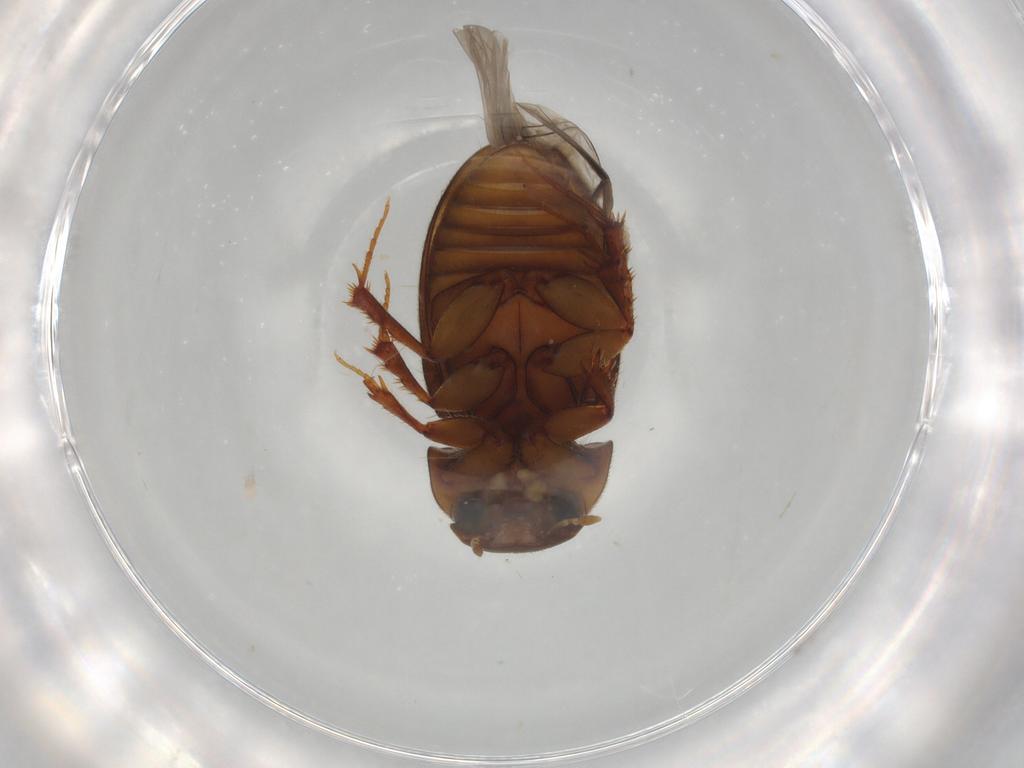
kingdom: Animalia
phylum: Arthropoda
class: Insecta
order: Coleoptera
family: Scarabaeidae
